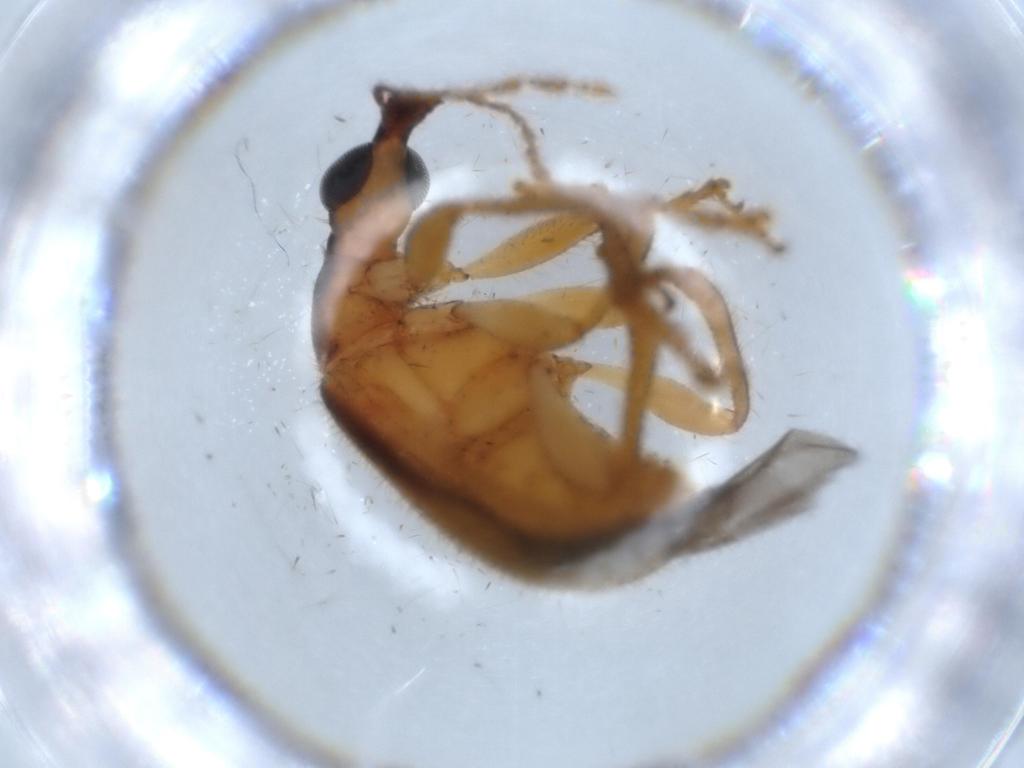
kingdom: Animalia
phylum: Arthropoda
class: Insecta
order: Coleoptera
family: Attelabidae
